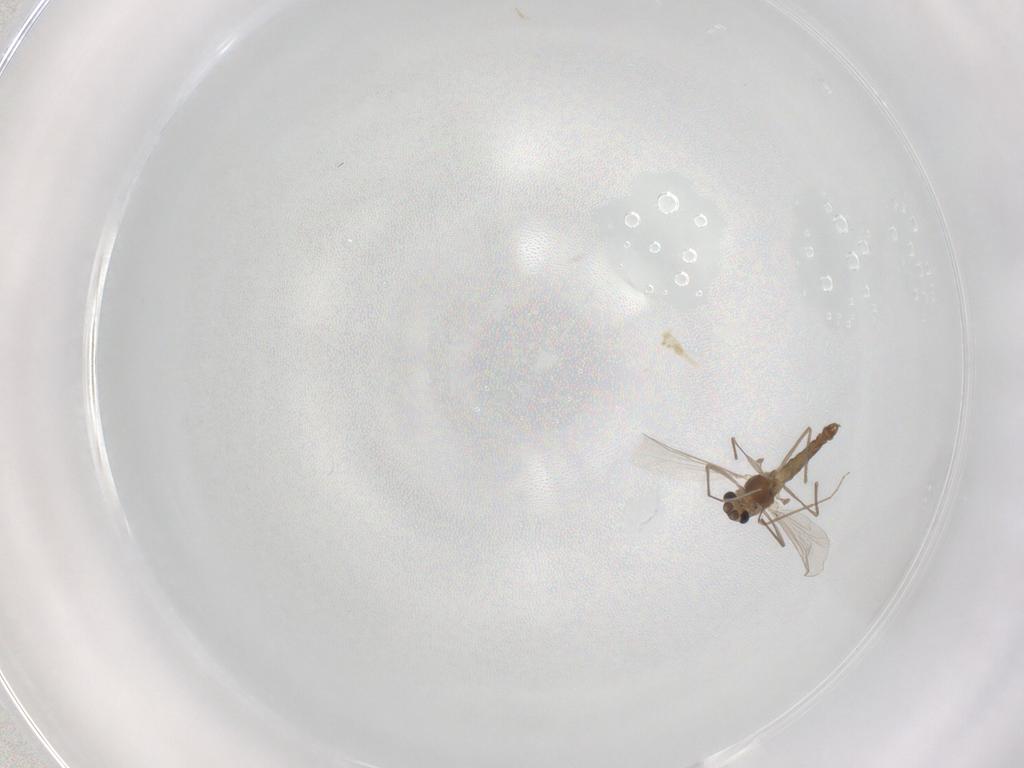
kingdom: Animalia
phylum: Arthropoda
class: Insecta
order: Diptera
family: Chironomidae
